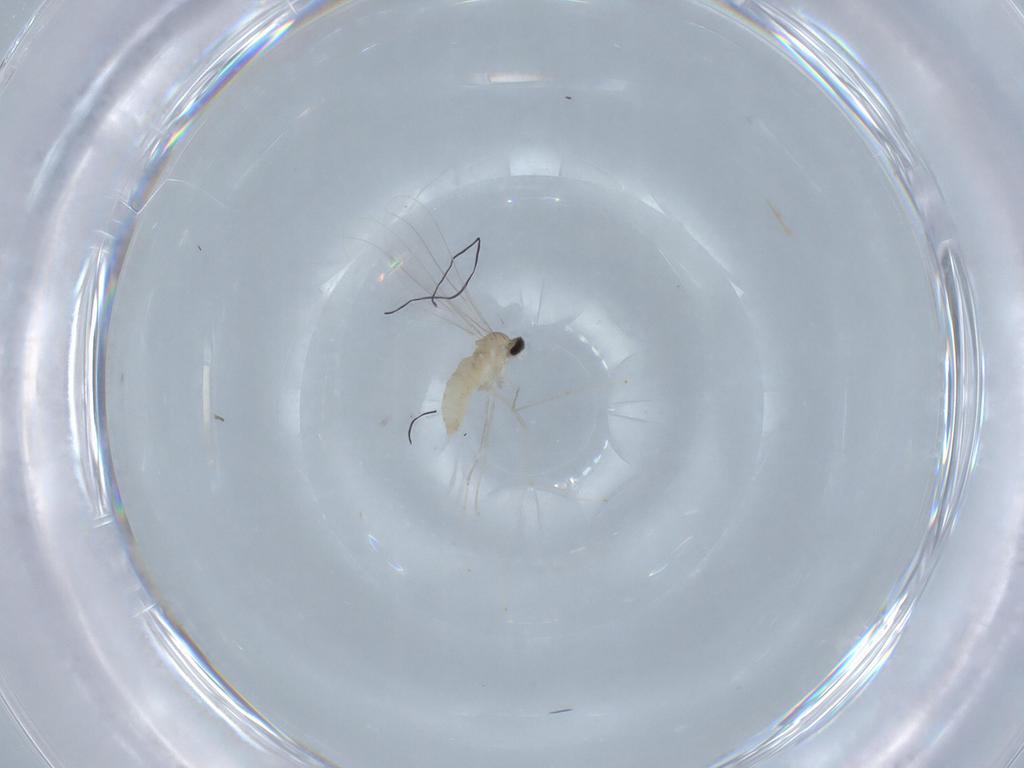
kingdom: Animalia
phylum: Arthropoda
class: Insecta
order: Diptera
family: Cecidomyiidae
